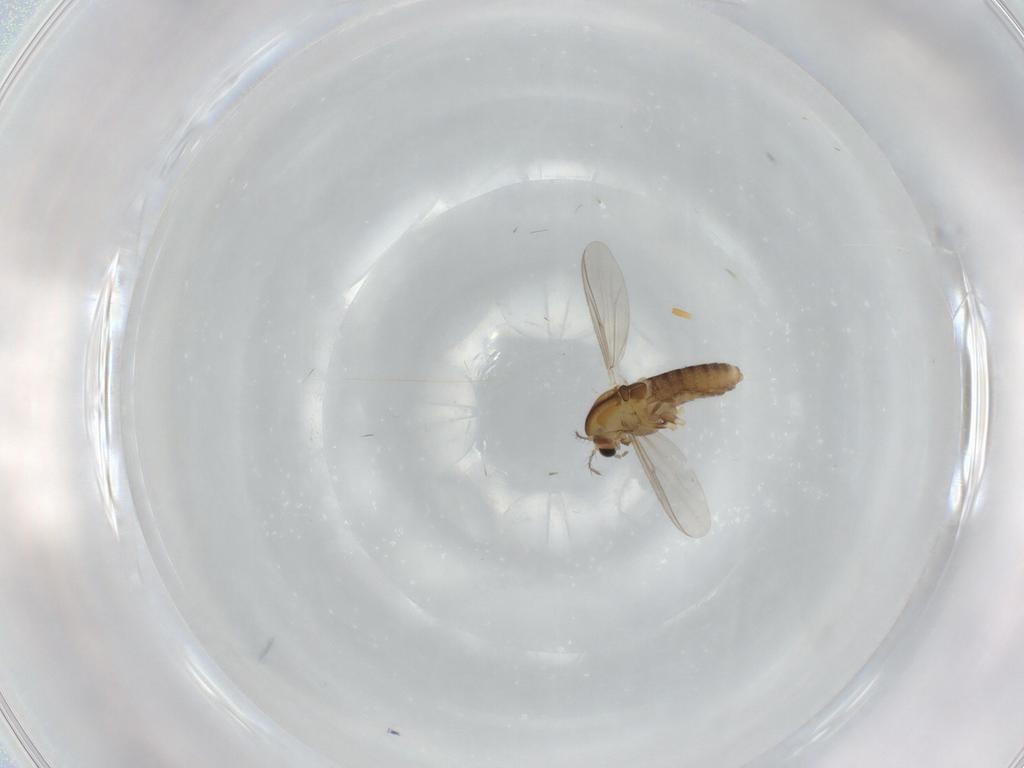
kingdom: Animalia
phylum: Arthropoda
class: Insecta
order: Diptera
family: Chironomidae
